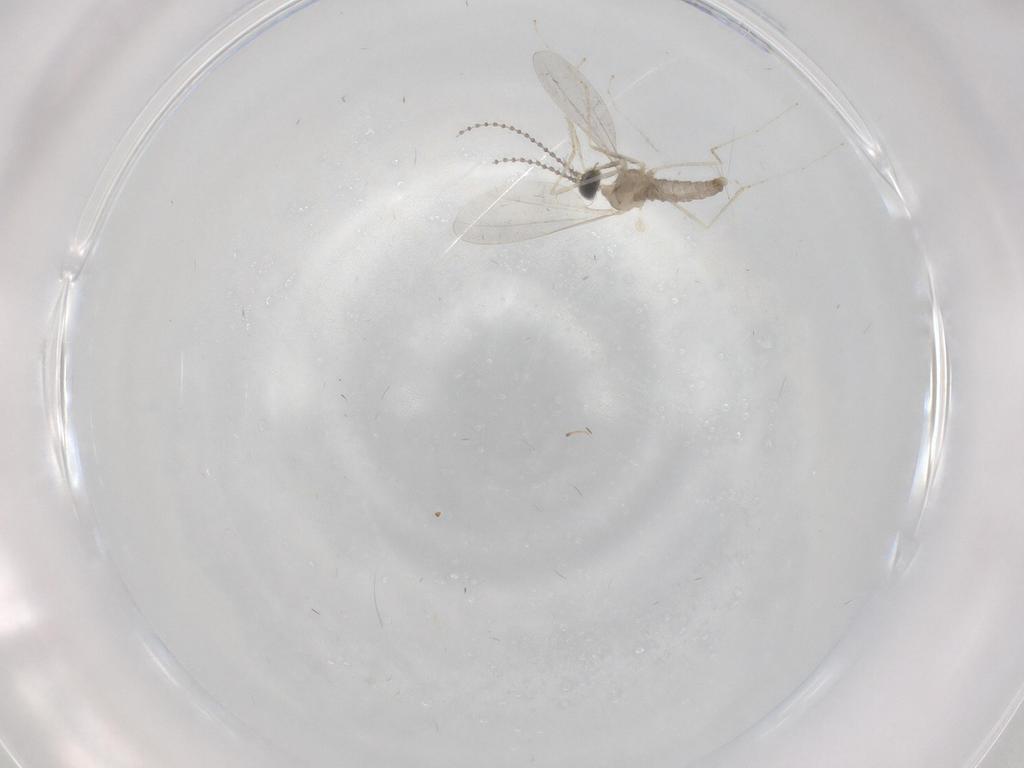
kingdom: Animalia
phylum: Arthropoda
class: Insecta
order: Diptera
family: Cecidomyiidae
